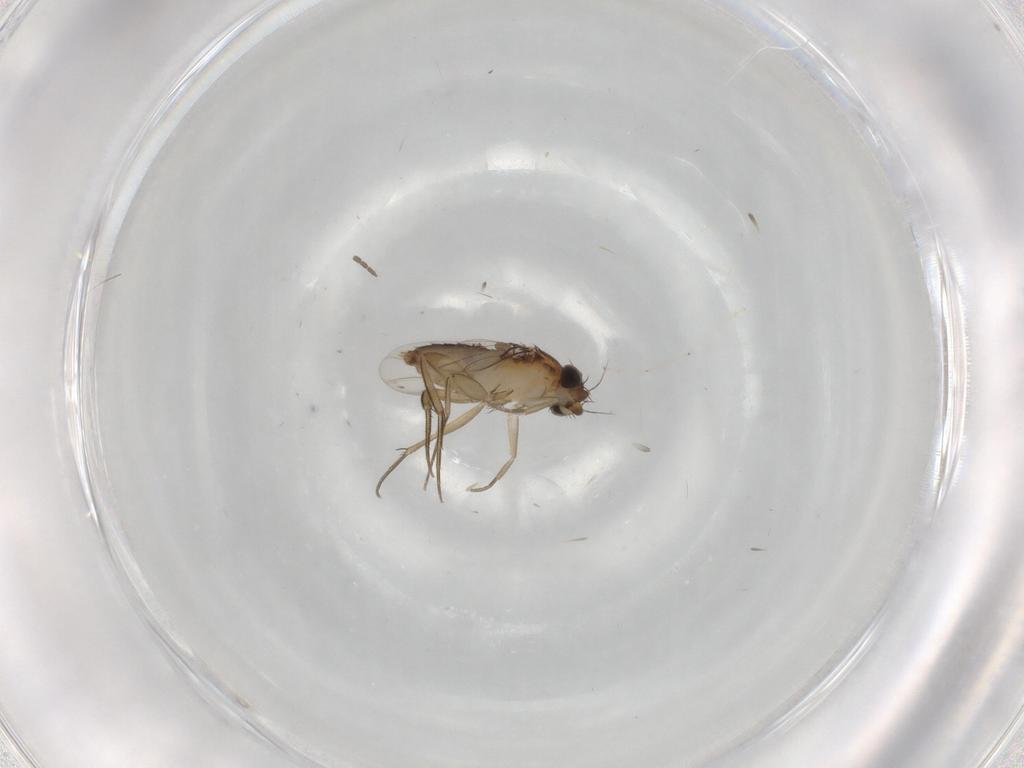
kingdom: Animalia
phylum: Arthropoda
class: Insecta
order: Diptera
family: Phoridae
